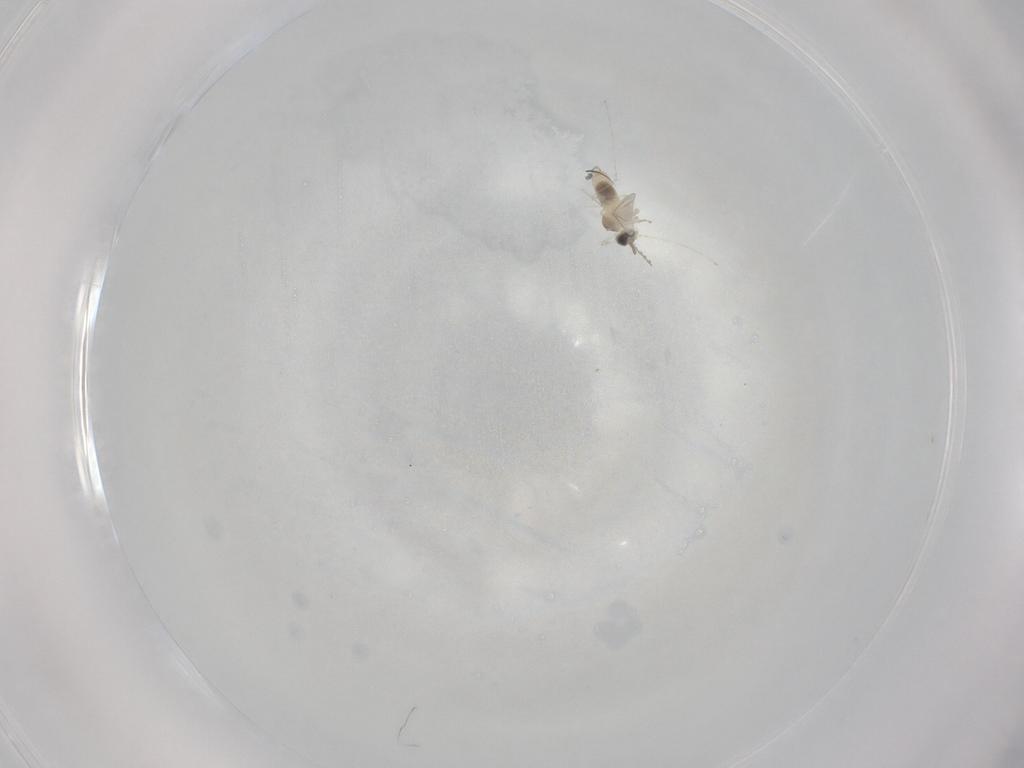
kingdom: Animalia
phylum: Arthropoda
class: Insecta
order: Diptera
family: Cecidomyiidae
